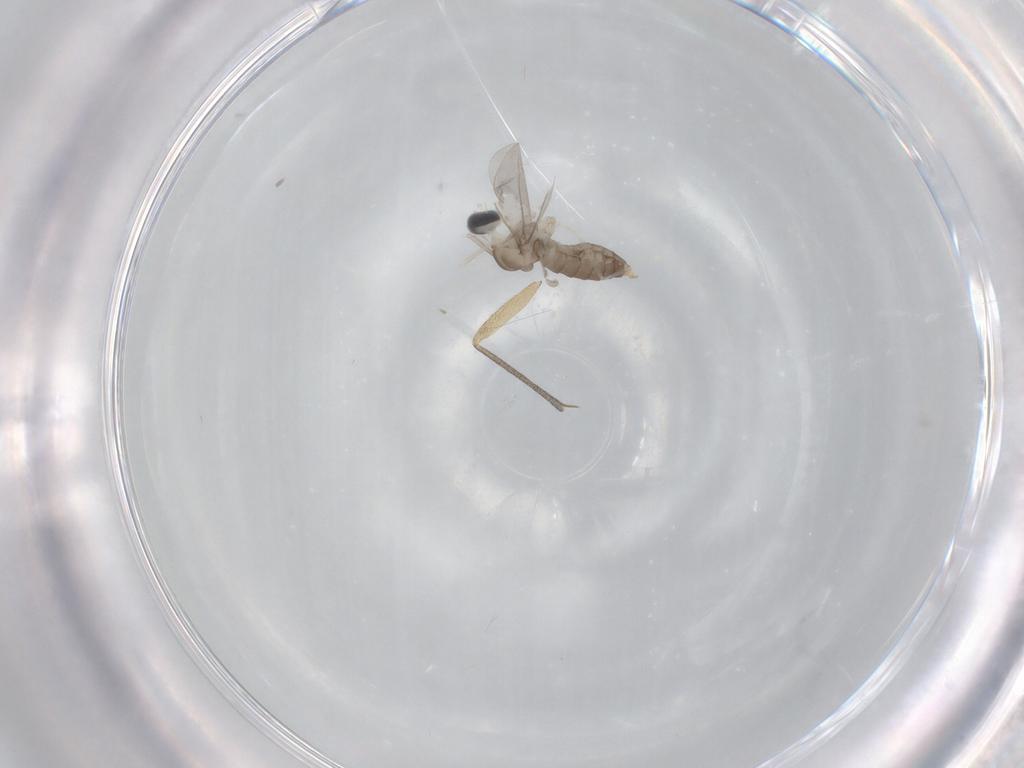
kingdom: Animalia
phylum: Arthropoda
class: Insecta
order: Diptera
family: Cecidomyiidae
